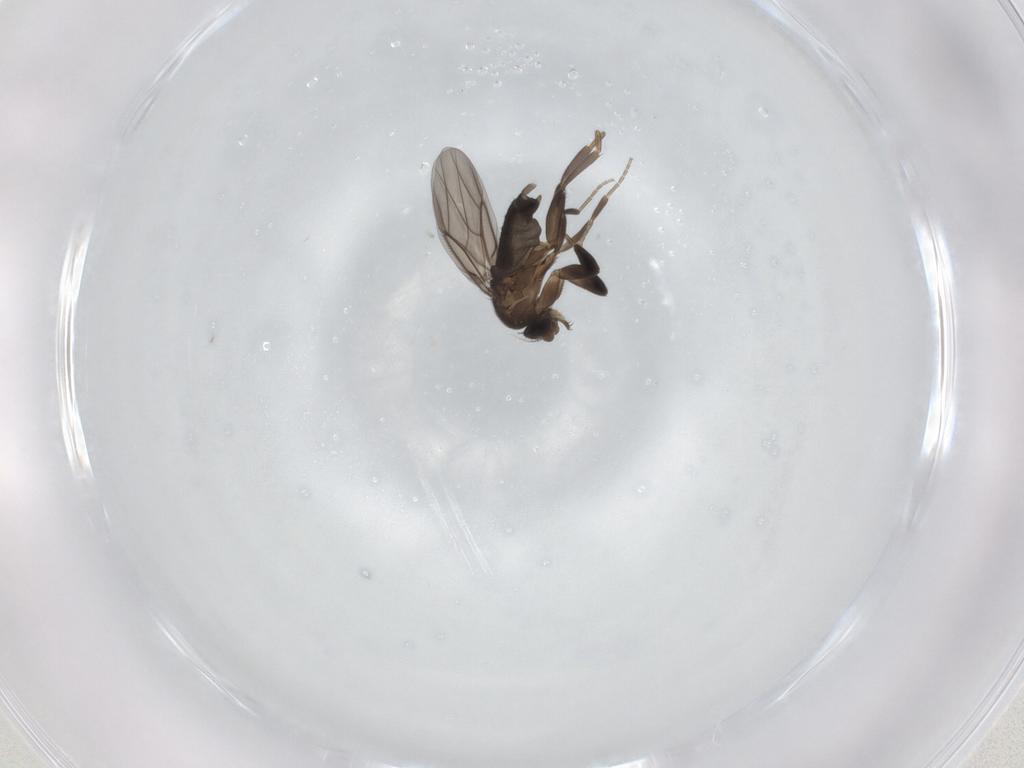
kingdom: Animalia
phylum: Arthropoda
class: Insecta
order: Diptera
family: Phoridae
